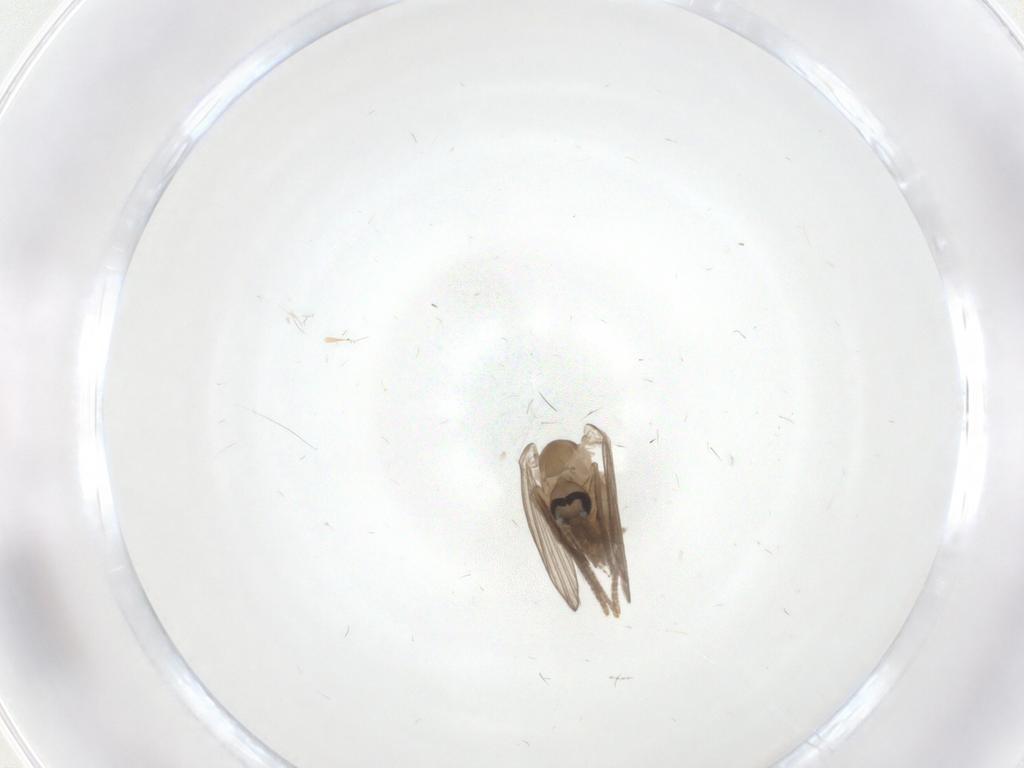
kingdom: Animalia
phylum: Arthropoda
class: Insecta
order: Diptera
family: Psychodidae
